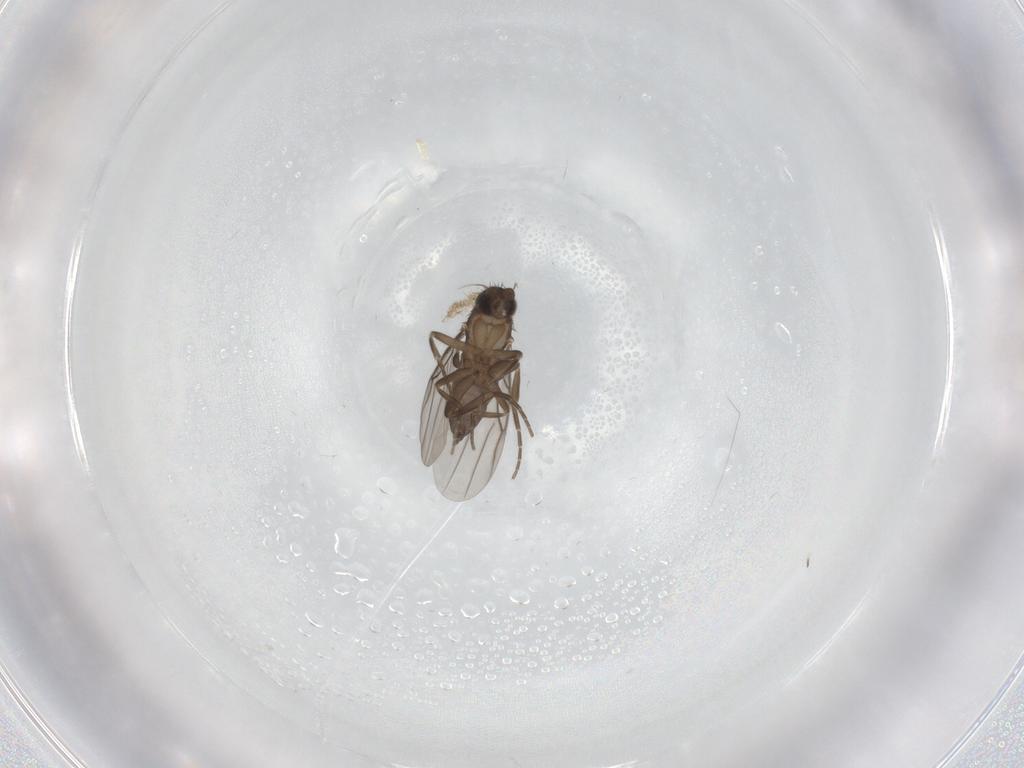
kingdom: Animalia
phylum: Arthropoda
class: Insecta
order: Diptera
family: Phoridae
